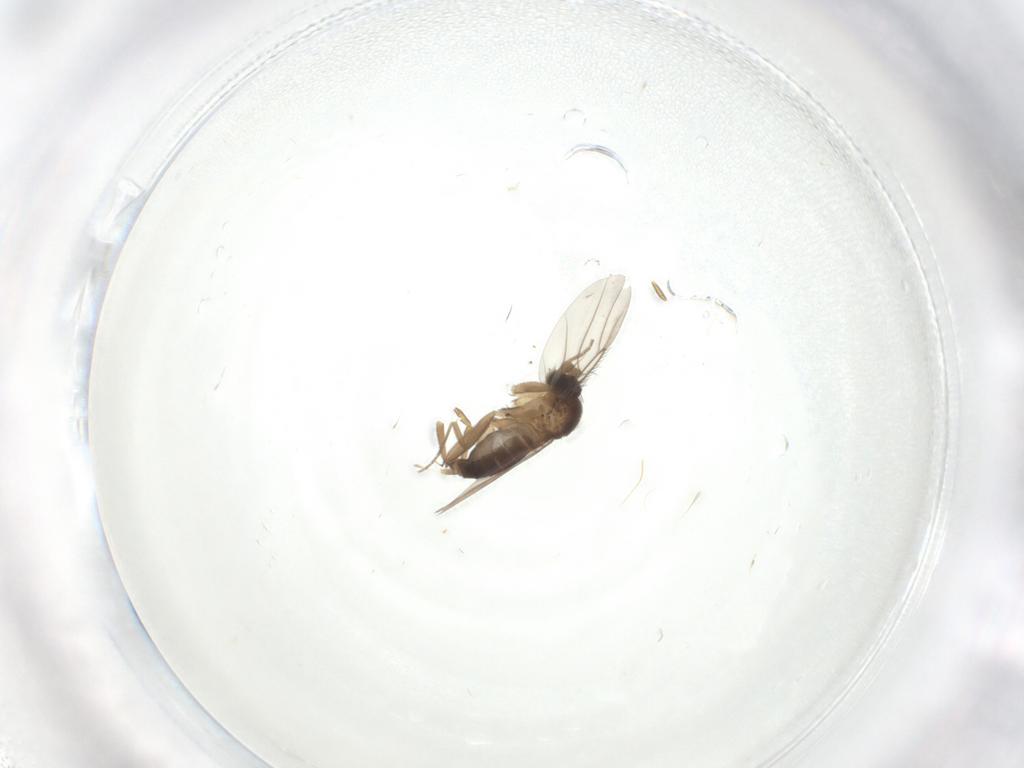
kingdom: Animalia
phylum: Arthropoda
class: Insecta
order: Diptera
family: Cecidomyiidae
